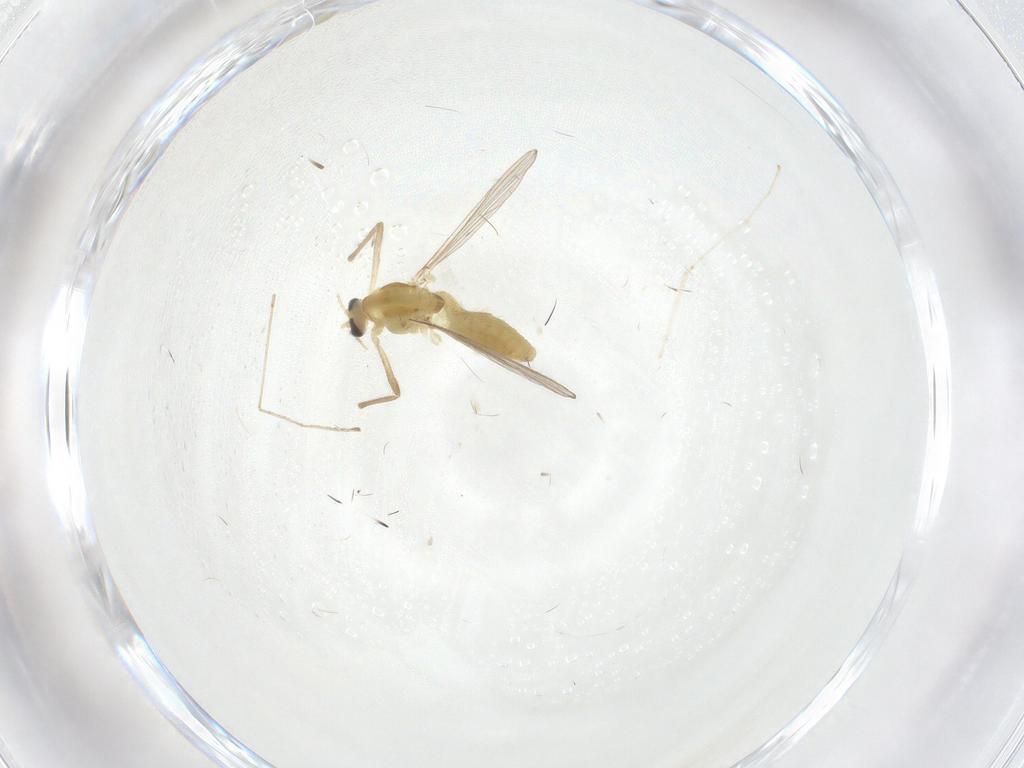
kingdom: Animalia
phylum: Arthropoda
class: Insecta
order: Diptera
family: Chironomidae
